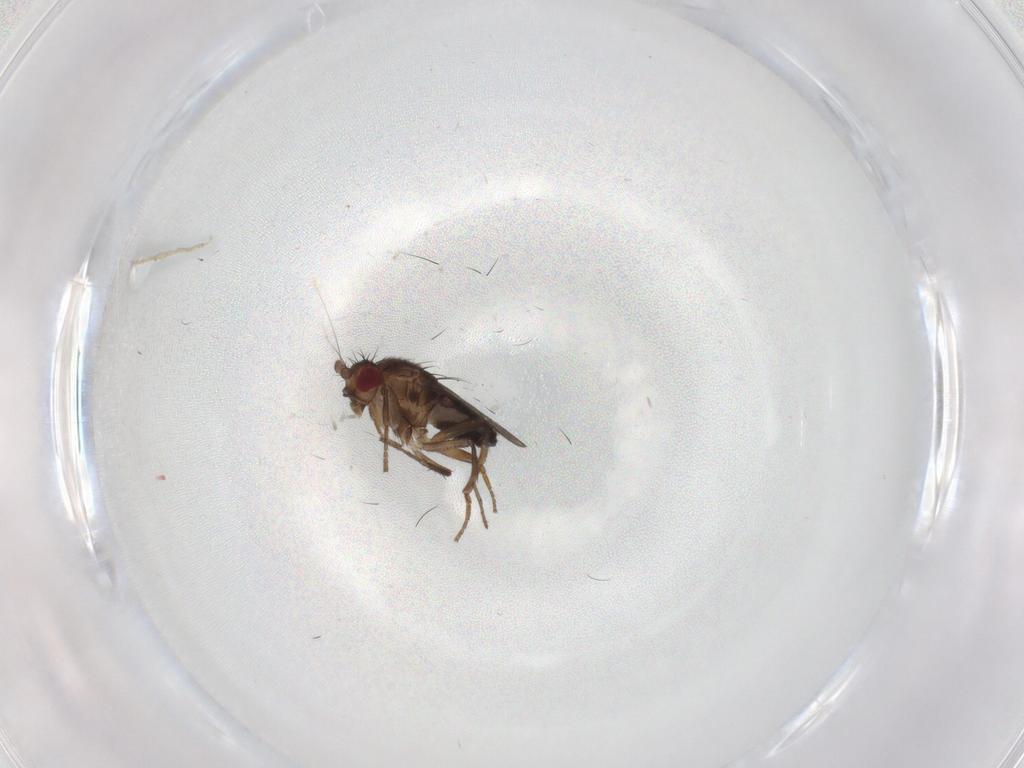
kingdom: Animalia
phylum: Arthropoda
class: Insecta
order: Diptera
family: Sphaeroceridae
